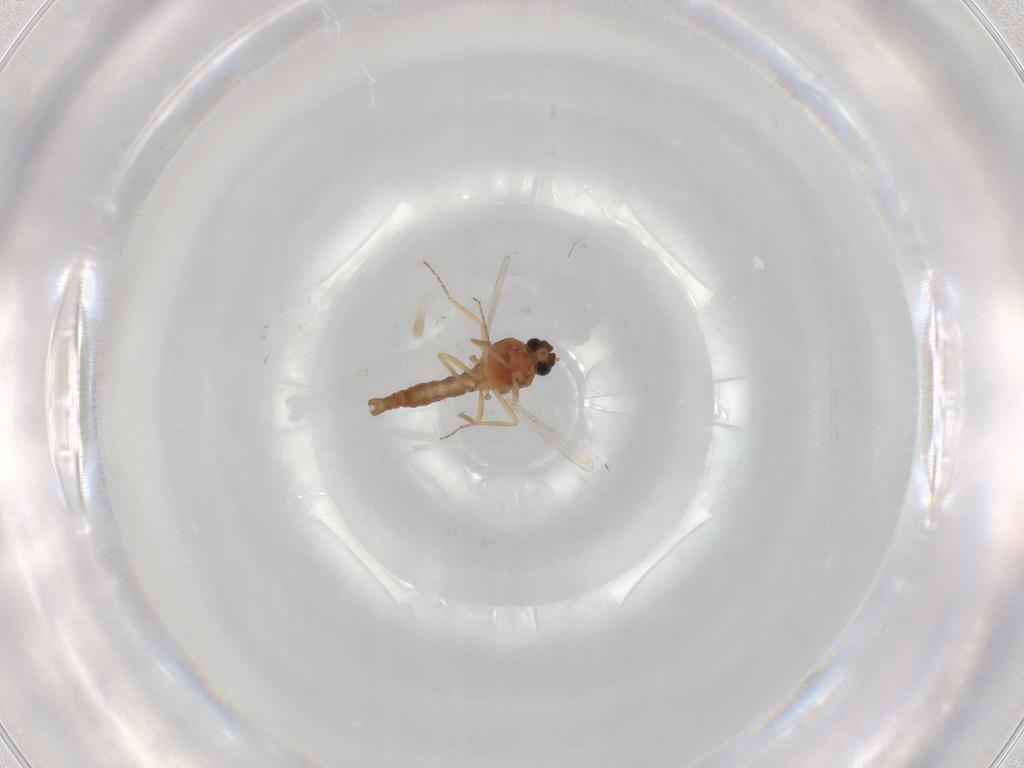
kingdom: Animalia
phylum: Arthropoda
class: Insecta
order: Diptera
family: Ceratopogonidae
